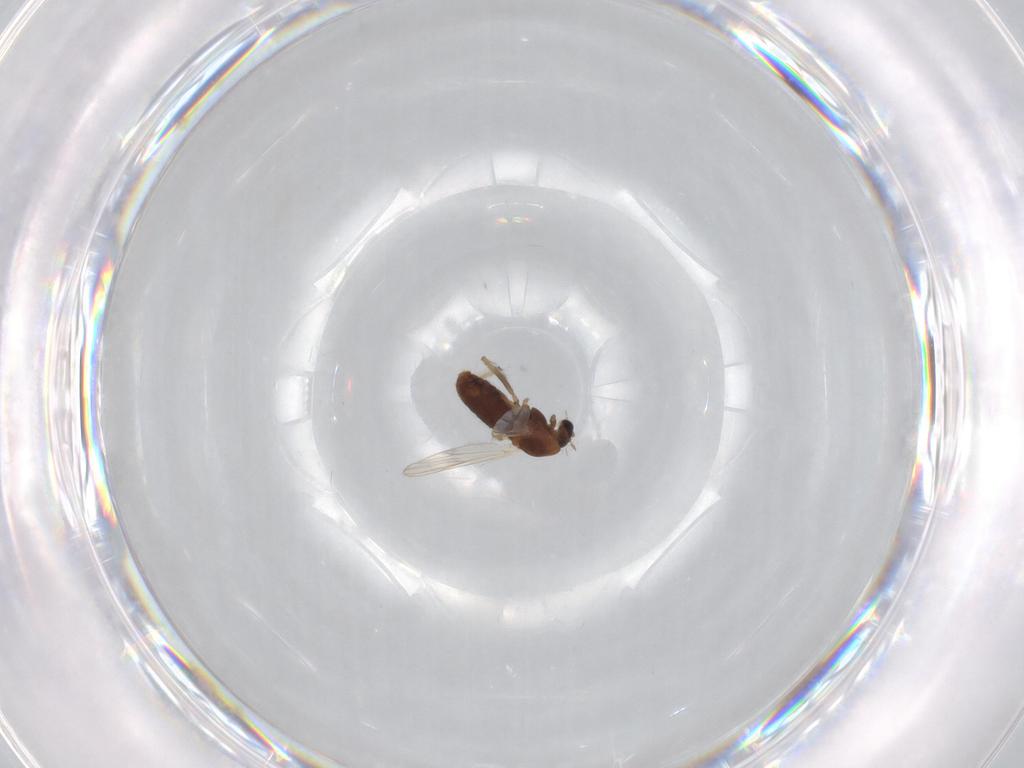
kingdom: Animalia
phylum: Arthropoda
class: Insecta
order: Diptera
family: Chironomidae
